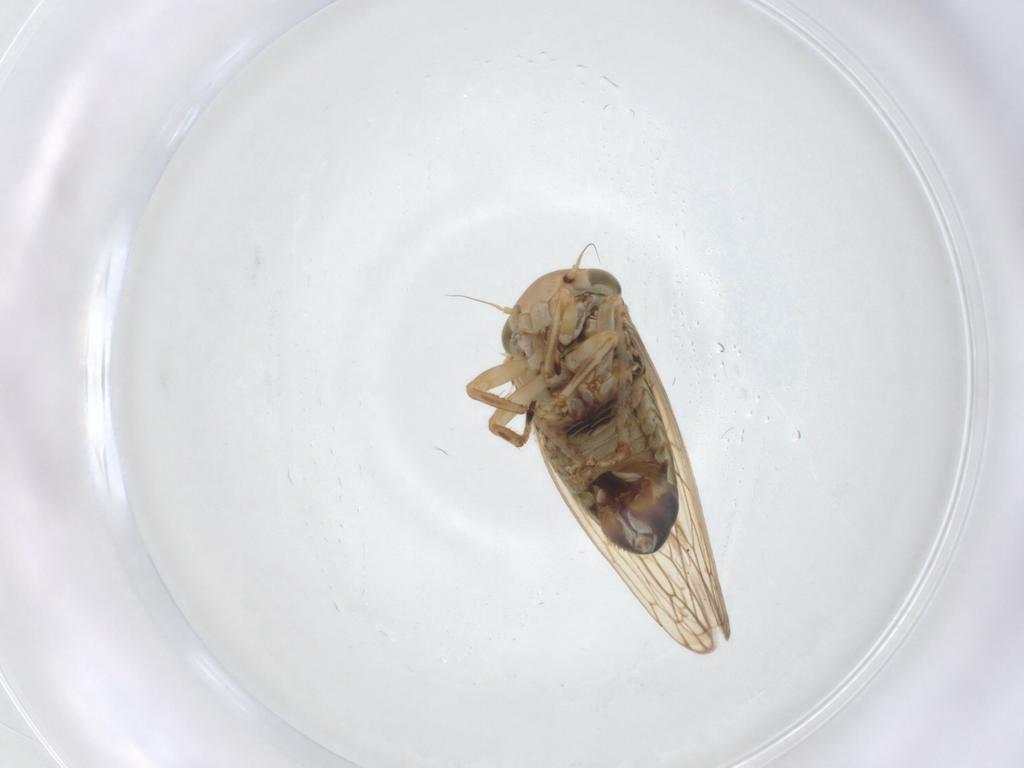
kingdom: Animalia
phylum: Arthropoda
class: Insecta
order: Hemiptera
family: Cicadellidae
